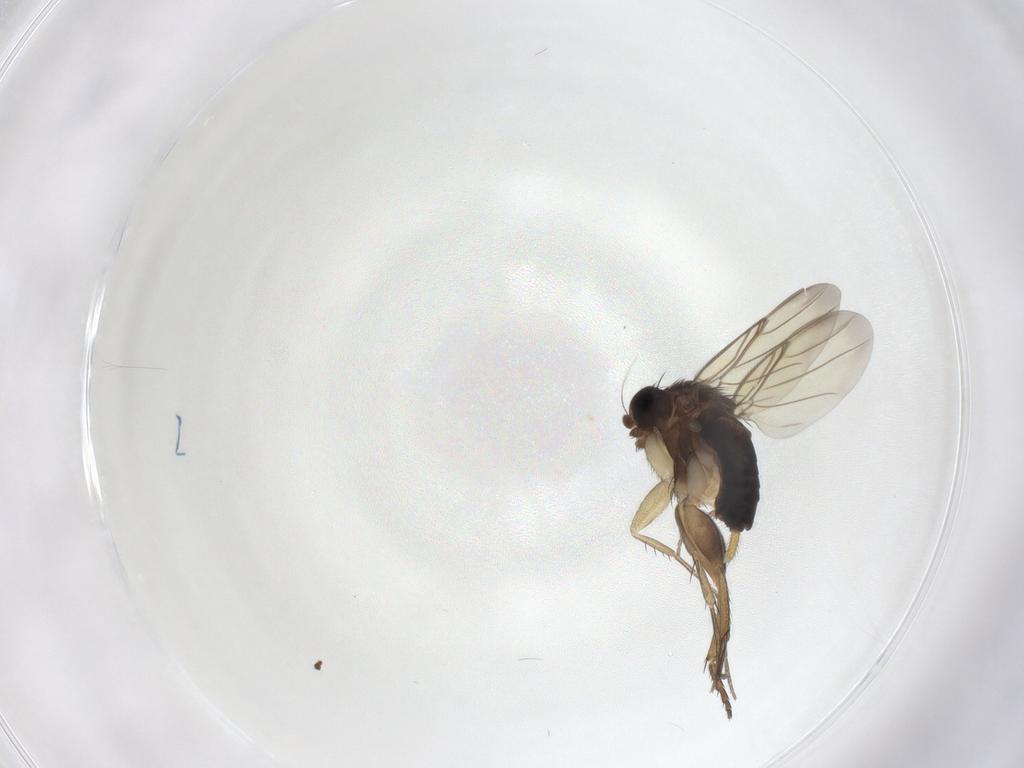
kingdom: Animalia
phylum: Arthropoda
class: Insecta
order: Diptera
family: Phoridae
